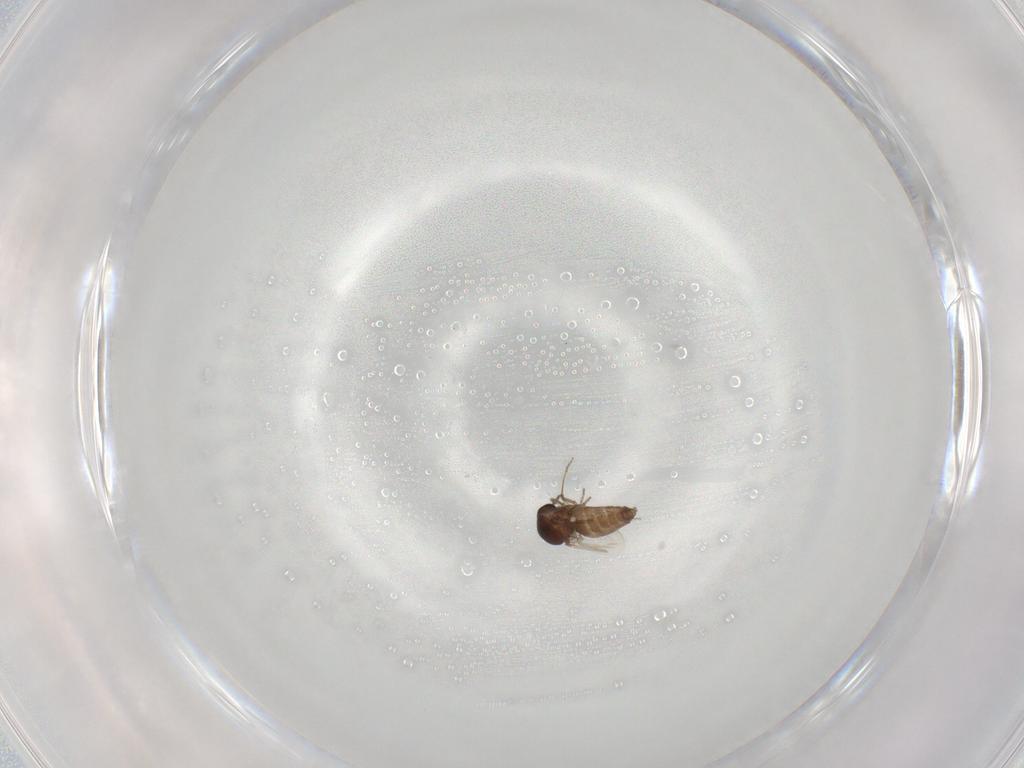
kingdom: Animalia
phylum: Arthropoda
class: Insecta
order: Diptera
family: Ceratopogonidae
